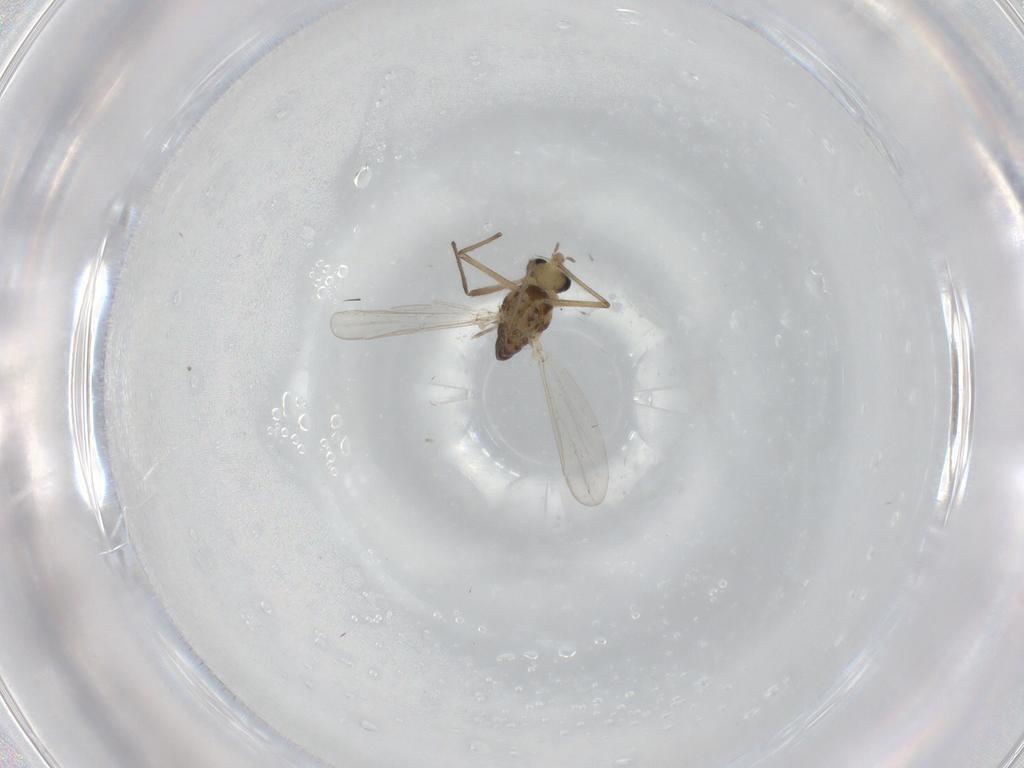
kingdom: Animalia
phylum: Arthropoda
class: Insecta
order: Diptera
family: Chironomidae
